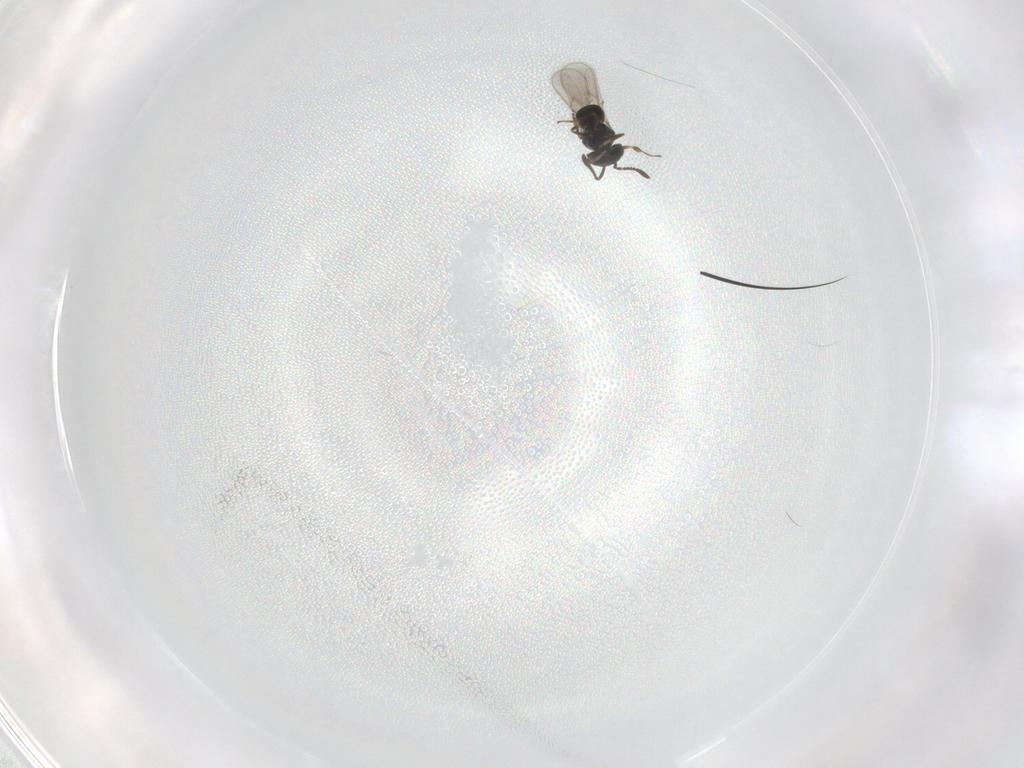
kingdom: Animalia
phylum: Arthropoda
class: Insecta
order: Hymenoptera
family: Scelionidae
